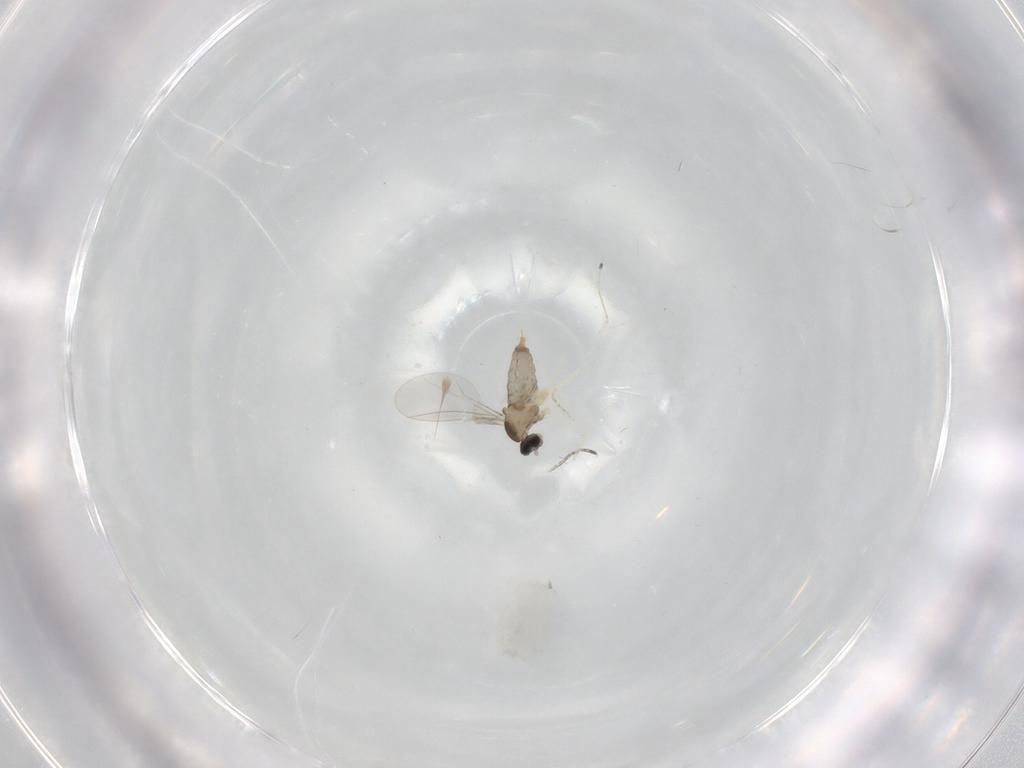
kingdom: Animalia
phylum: Arthropoda
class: Insecta
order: Diptera
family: Cecidomyiidae
